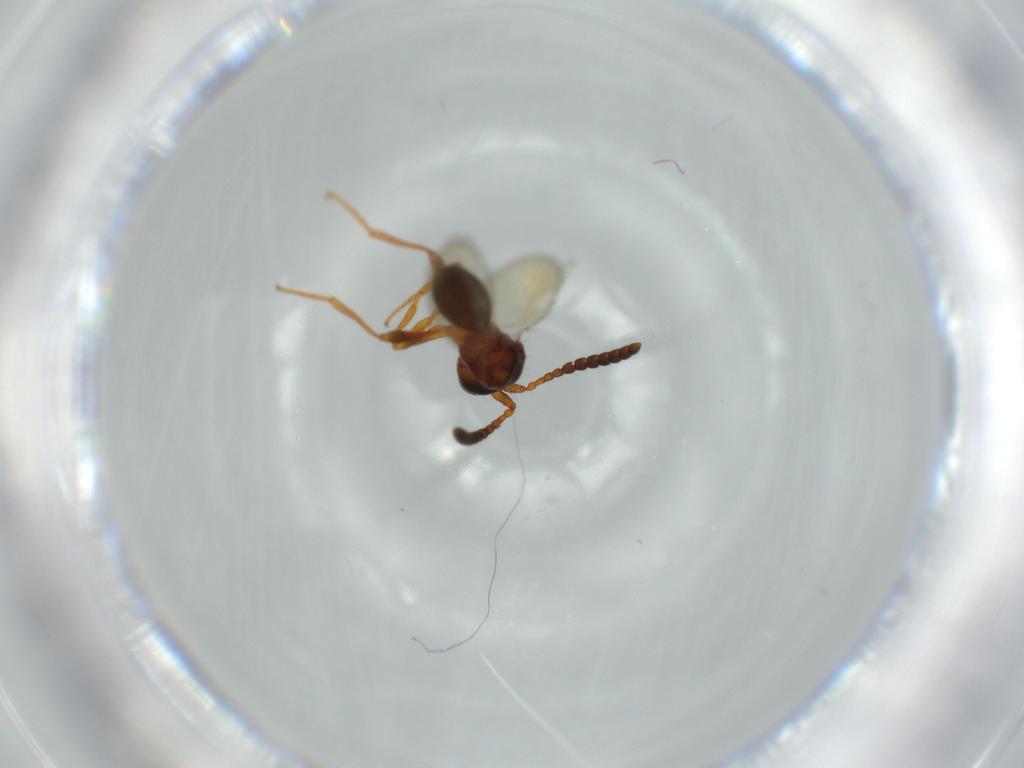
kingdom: Animalia
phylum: Arthropoda
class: Insecta
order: Hymenoptera
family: Diapriidae
